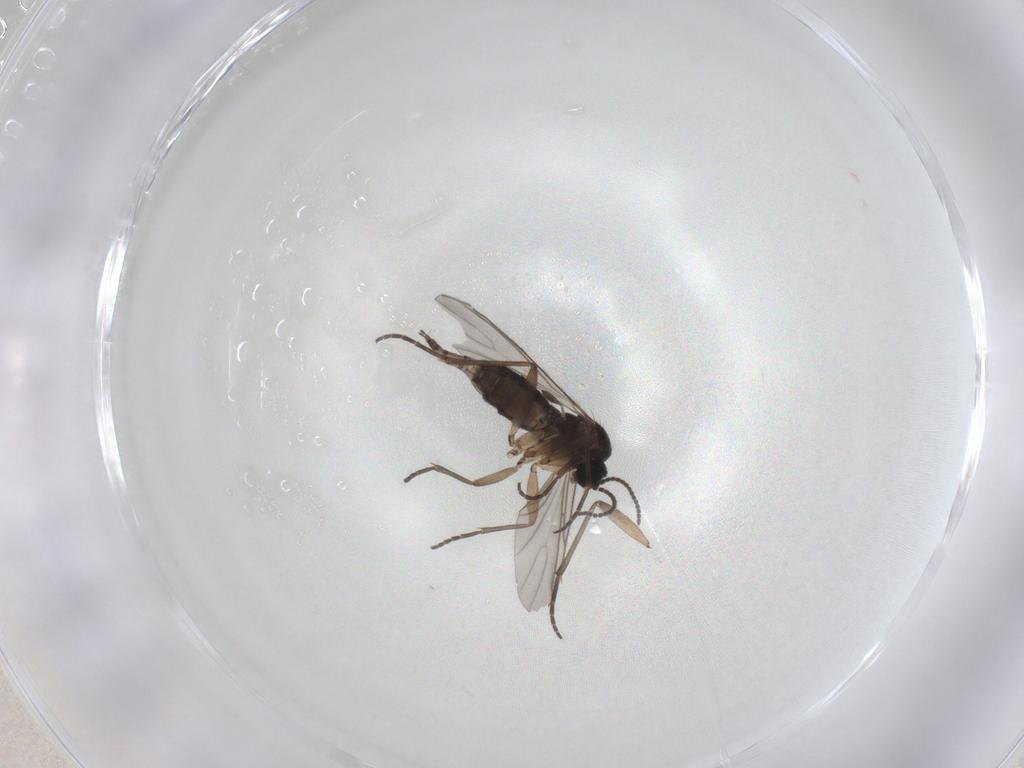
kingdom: Animalia
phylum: Arthropoda
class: Insecta
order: Diptera
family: Sciaridae
